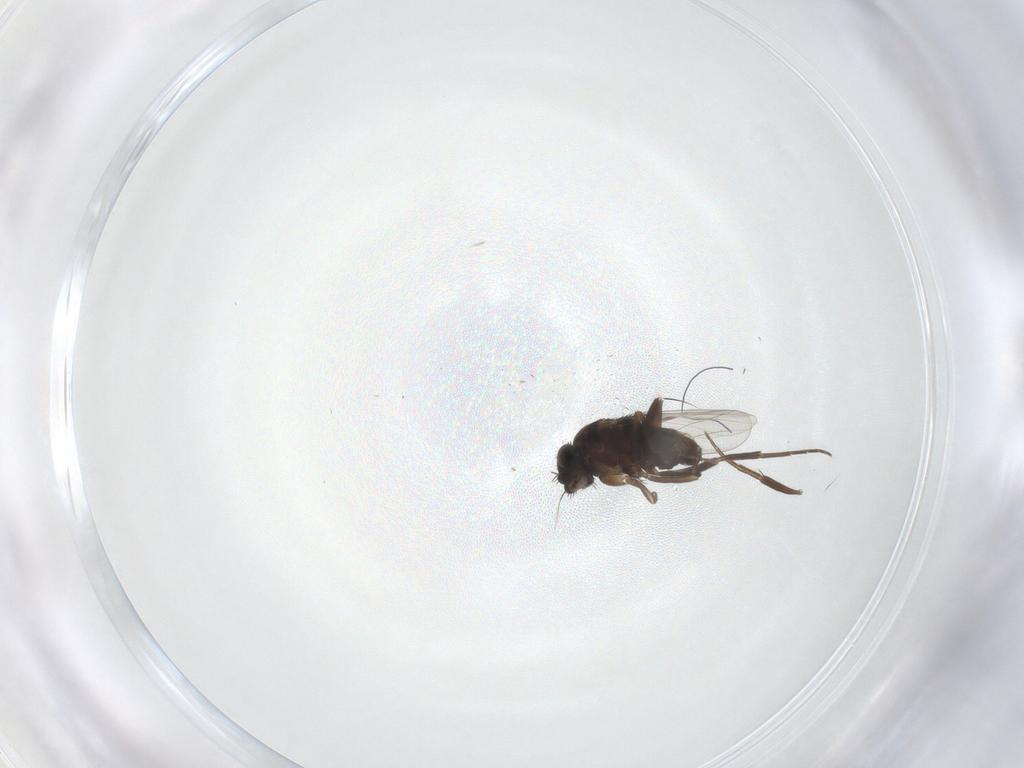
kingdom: Animalia
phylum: Arthropoda
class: Insecta
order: Diptera
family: Phoridae
